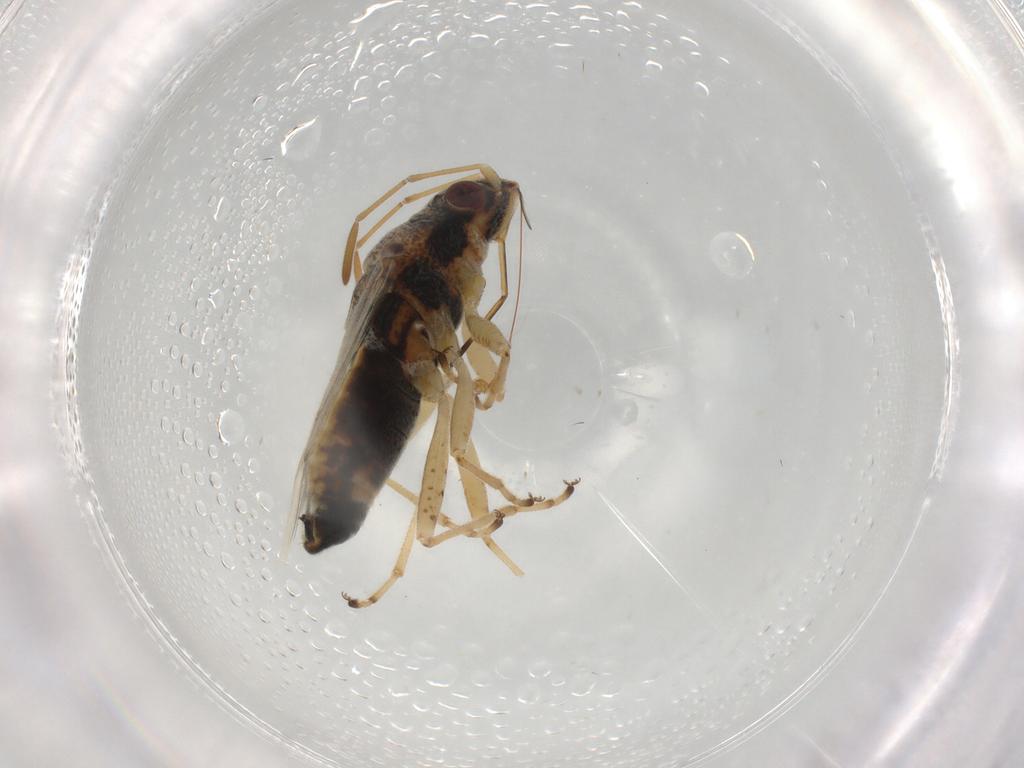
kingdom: Animalia
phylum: Arthropoda
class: Insecta
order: Hemiptera
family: Lygaeidae
